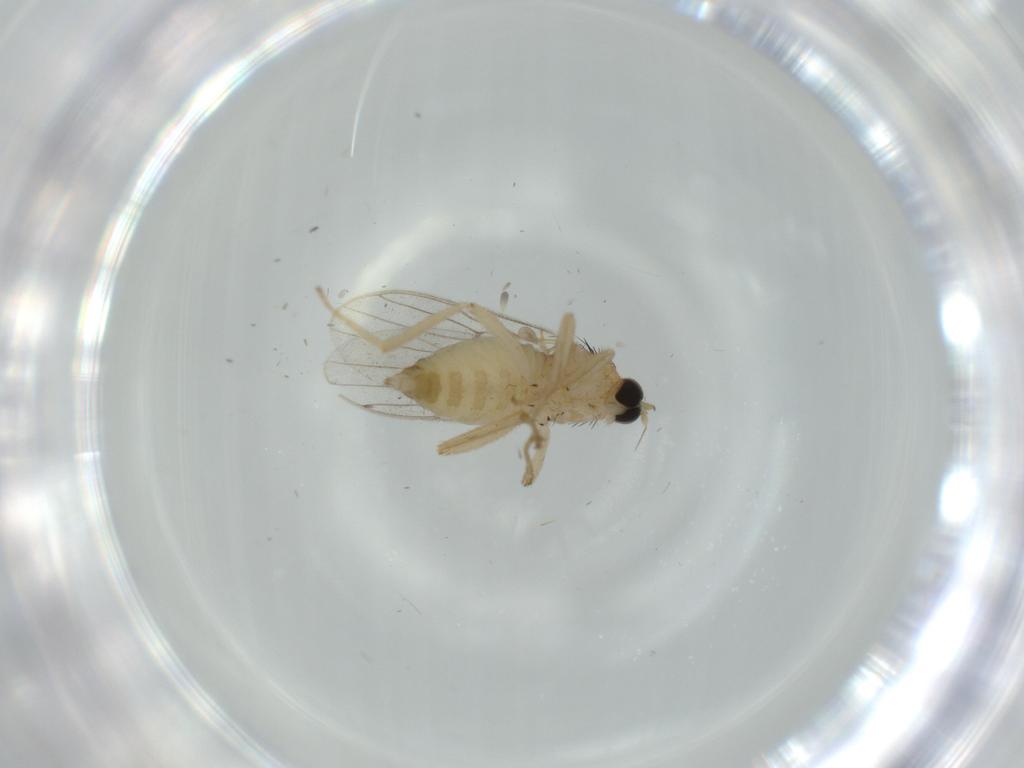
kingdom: Animalia
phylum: Arthropoda
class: Insecta
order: Diptera
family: Hybotidae
